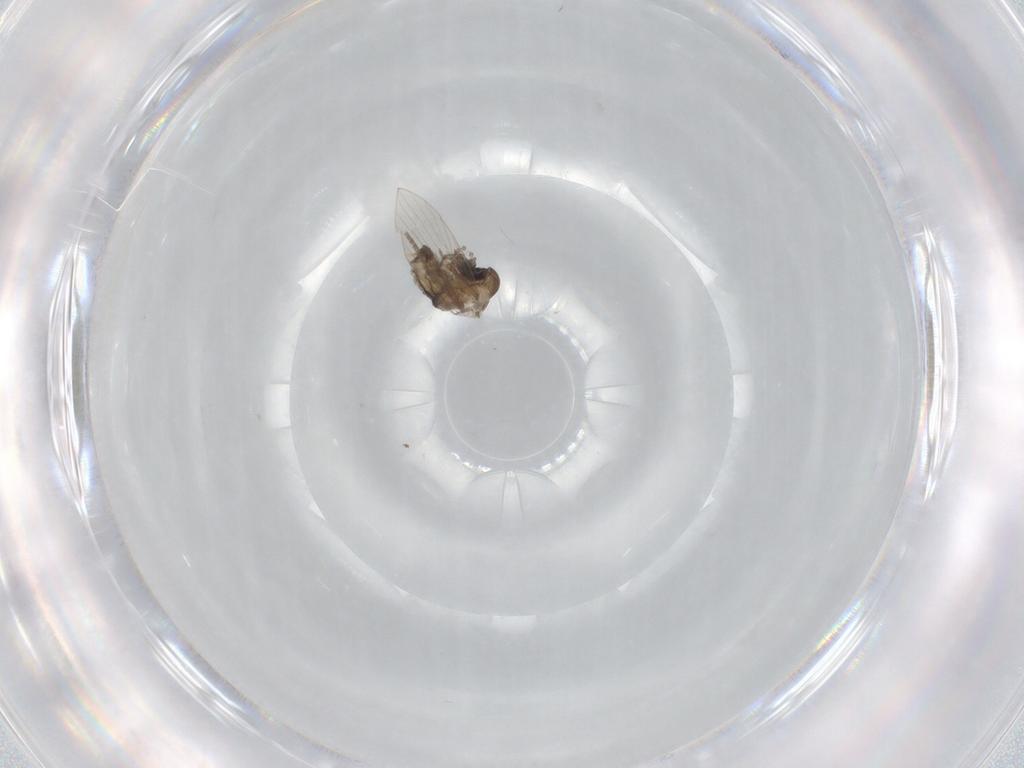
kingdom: Animalia
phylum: Arthropoda
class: Insecta
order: Diptera
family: Psychodidae
